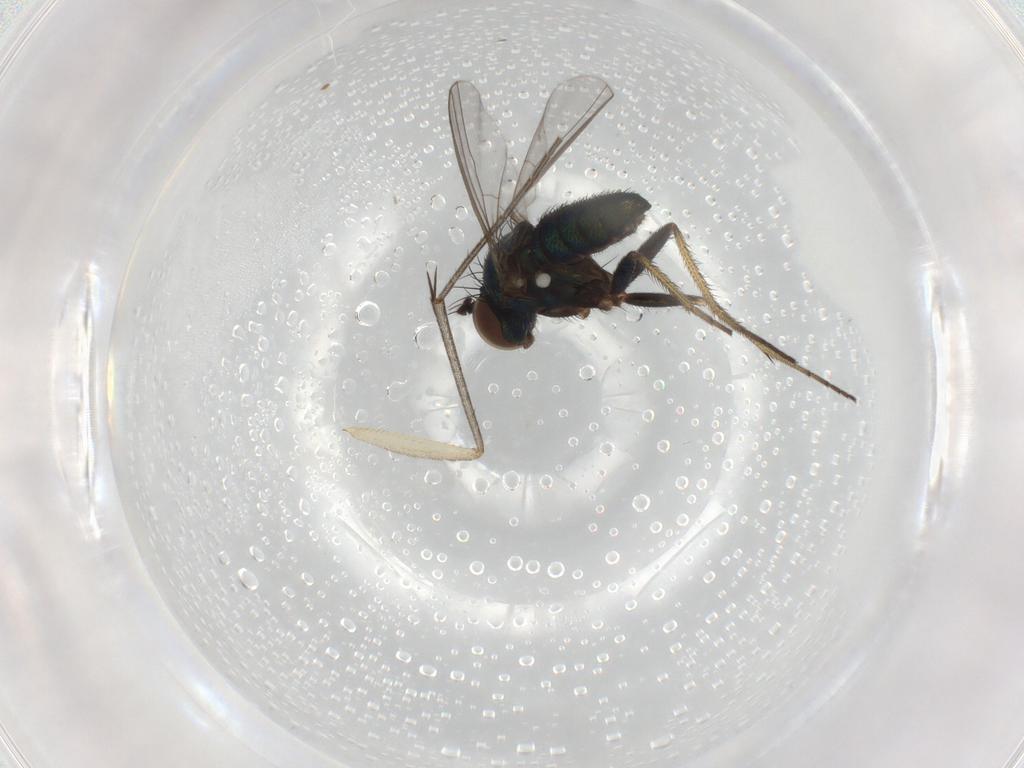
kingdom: Animalia
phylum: Arthropoda
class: Insecta
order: Diptera
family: Dolichopodidae
